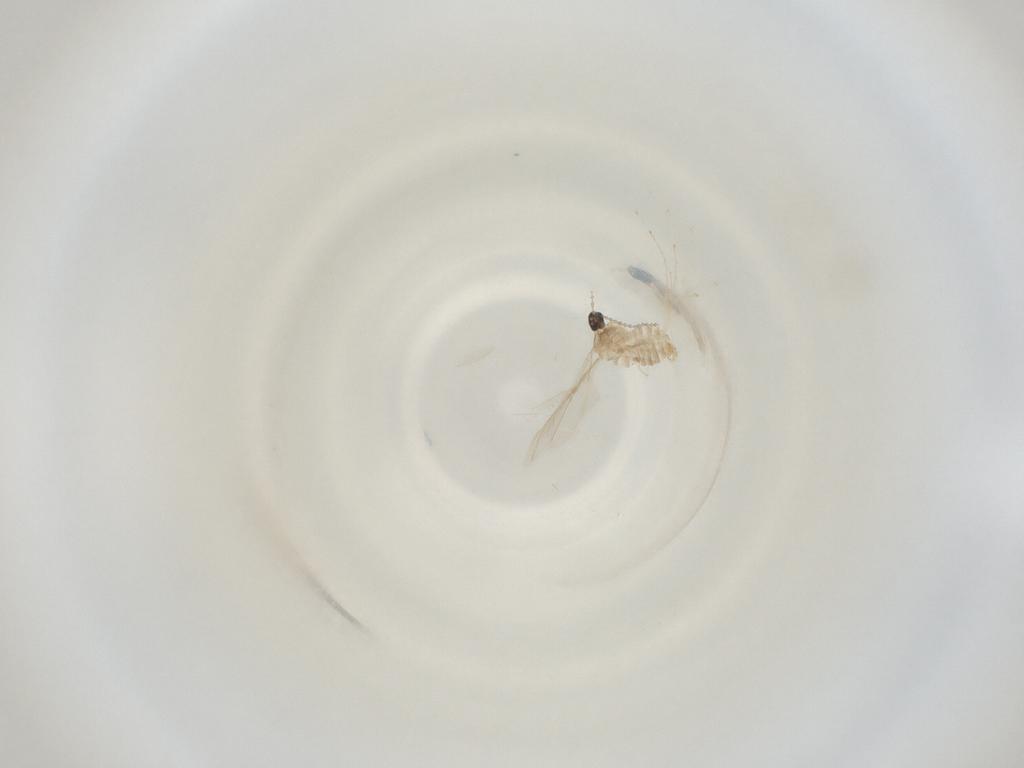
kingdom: Animalia
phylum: Arthropoda
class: Insecta
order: Diptera
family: Cecidomyiidae
